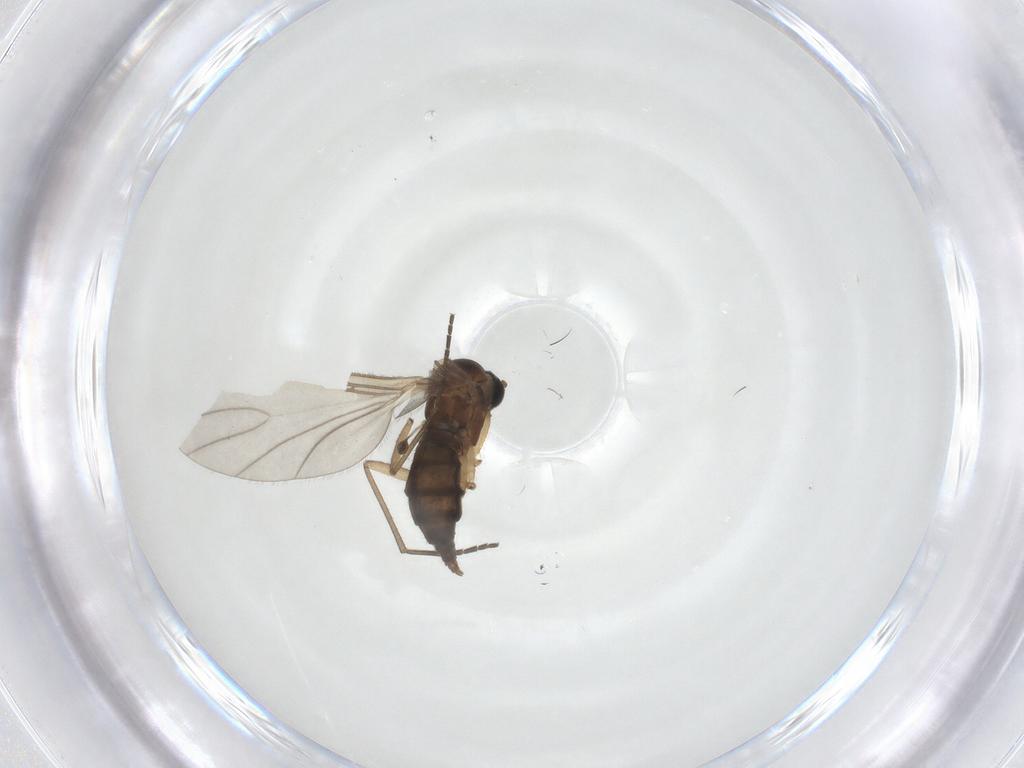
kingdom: Animalia
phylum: Arthropoda
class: Insecta
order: Diptera
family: Sciaridae
